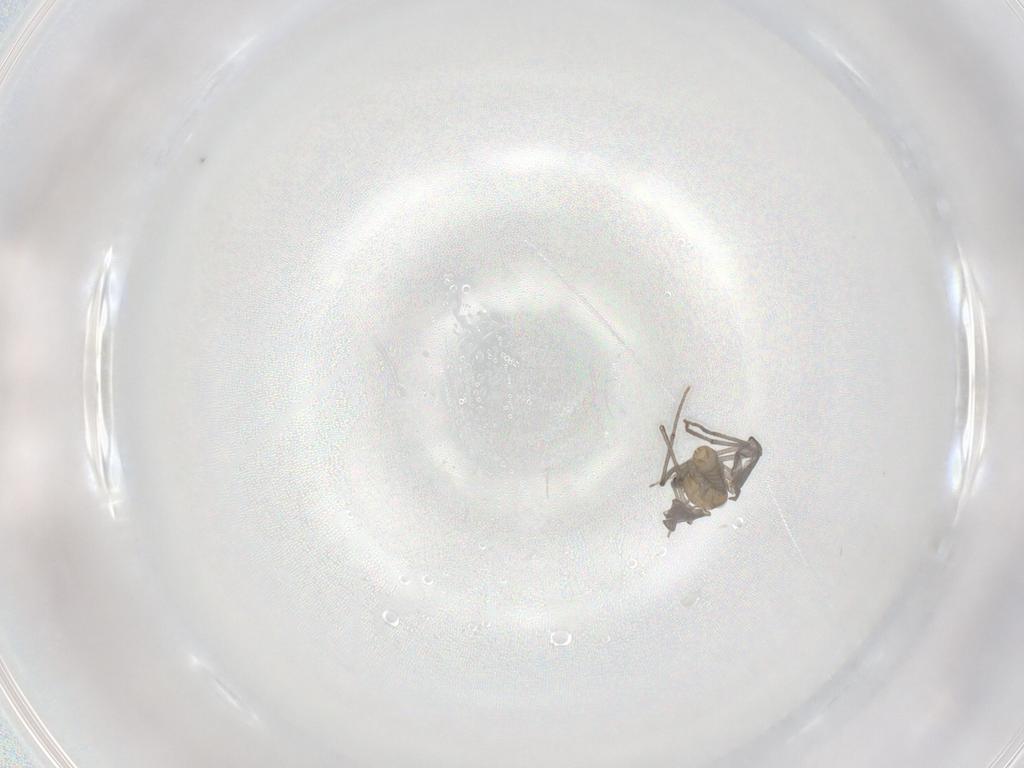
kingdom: Animalia
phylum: Arthropoda
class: Insecta
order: Diptera
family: Chironomidae
